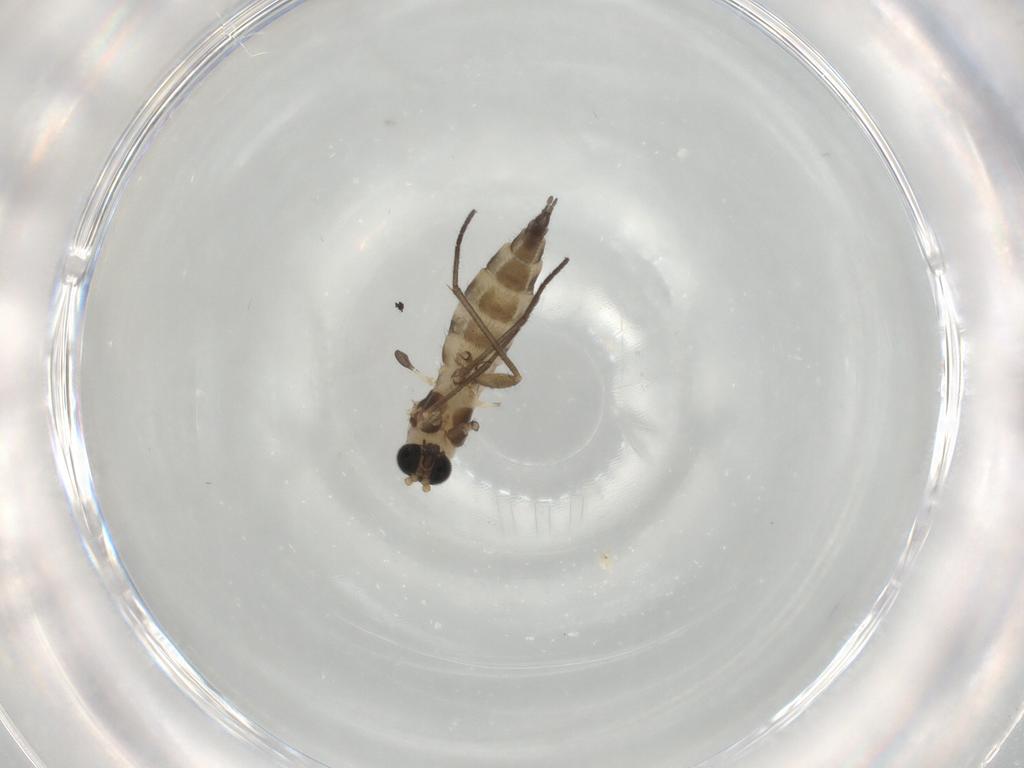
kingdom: Animalia
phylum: Arthropoda
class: Insecta
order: Diptera
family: Sciaridae
